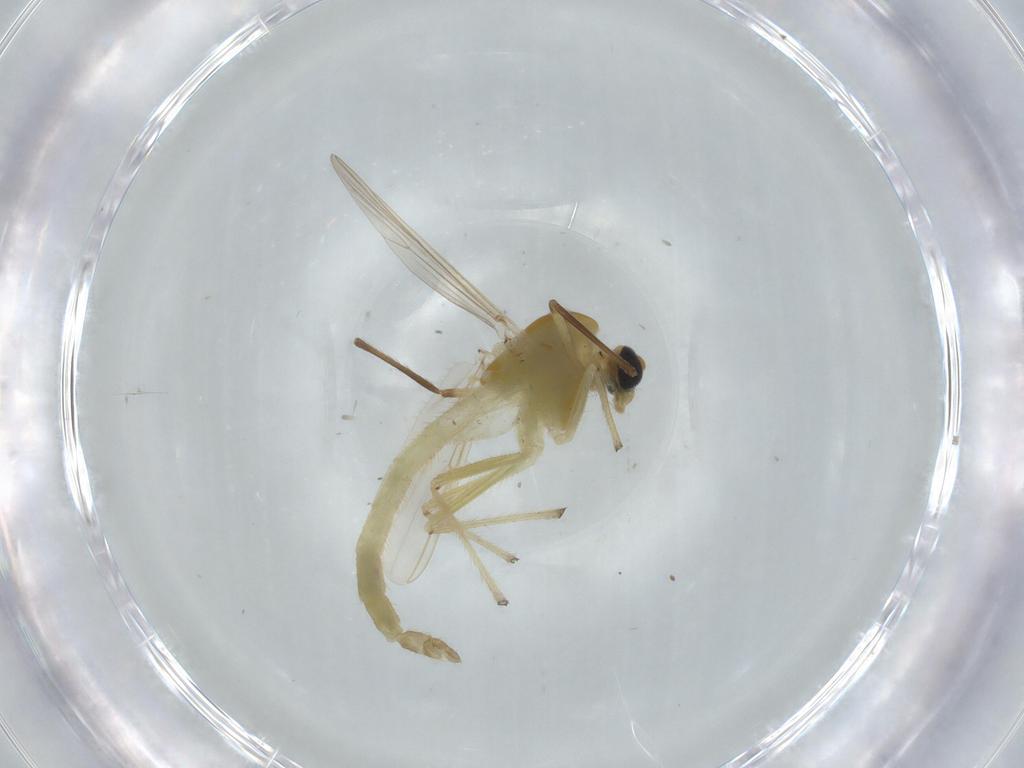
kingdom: Animalia
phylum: Arthropoda
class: Insecta
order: Diptera
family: Chironomidae
